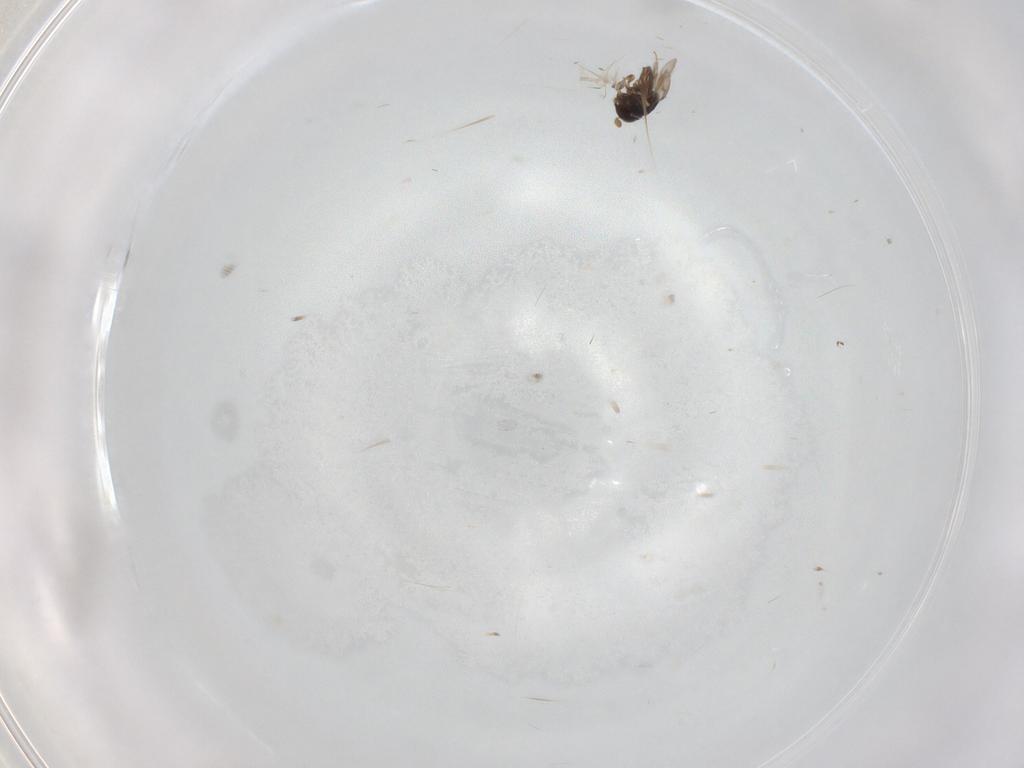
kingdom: Animalia
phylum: Arthropoda
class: Insecta
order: Hymenoptera
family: Scelionidae
